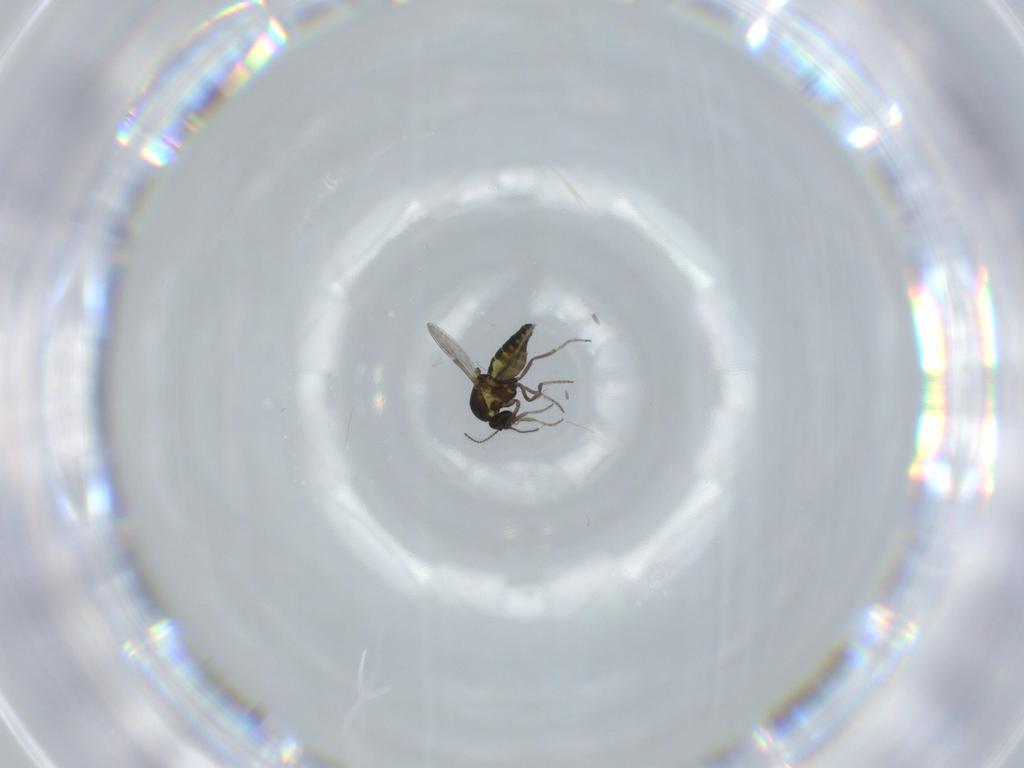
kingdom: Animalia
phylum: Arthropoda
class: Insecta
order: Diptera
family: Ceratopogonidae
